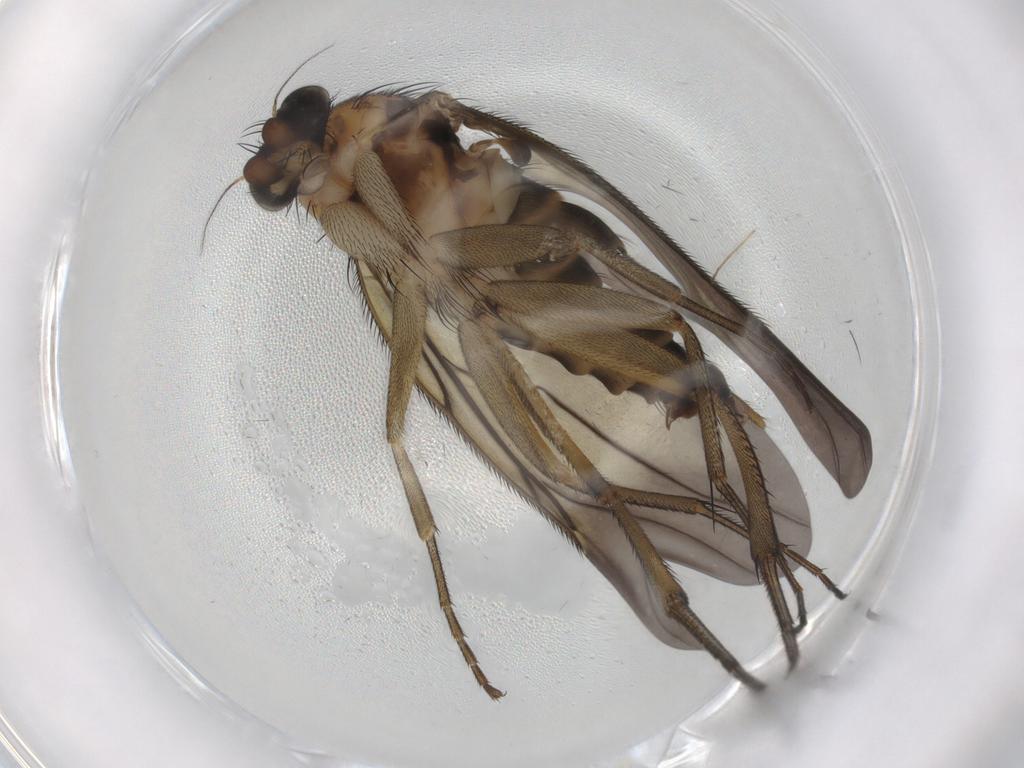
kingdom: Animalia
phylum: Arthropoda
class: Insecta
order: Diptera
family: Phoridae
